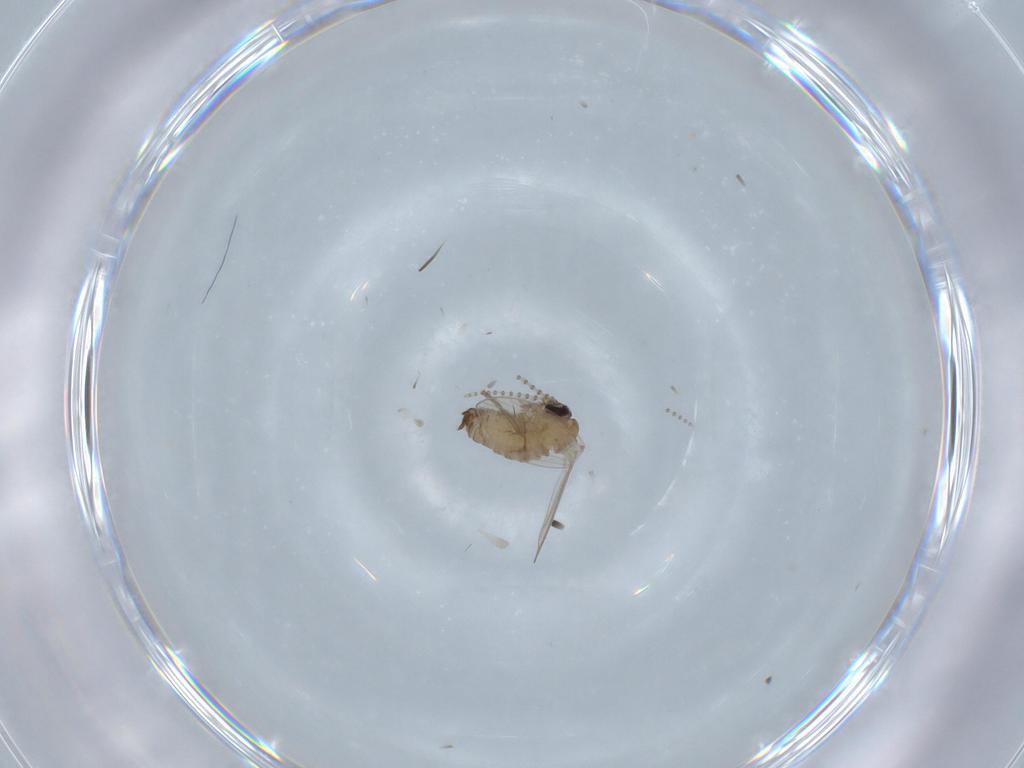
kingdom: Animalia
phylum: Arthropoda
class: Insecta
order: Diptera
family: Psychodidae
